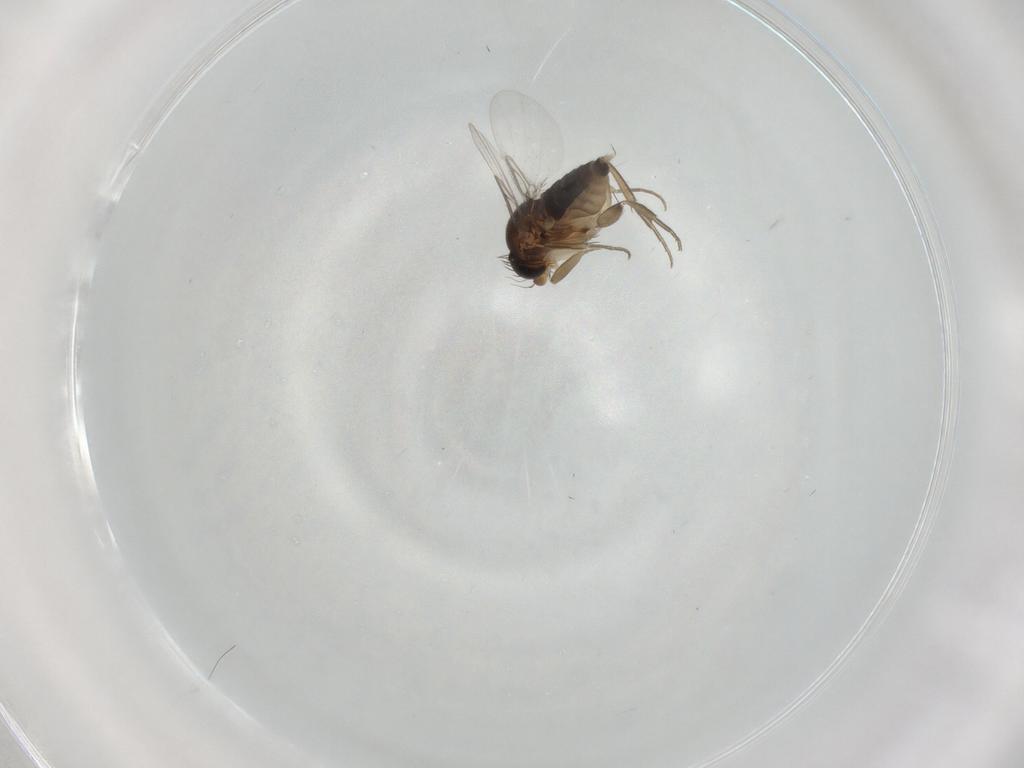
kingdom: Animalia
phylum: Arthropoda
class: Insecta
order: Diptera
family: Phoridae
